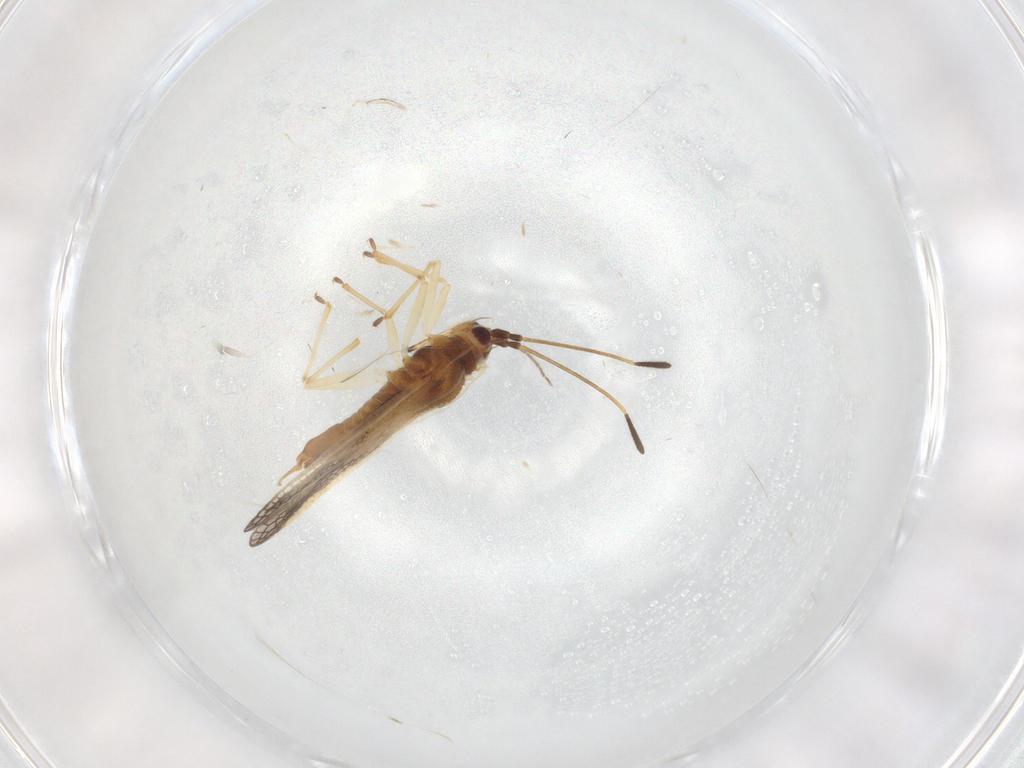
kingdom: Animalia
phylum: Arthropoda
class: Insecta
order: Hemiptera
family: Tingidae
